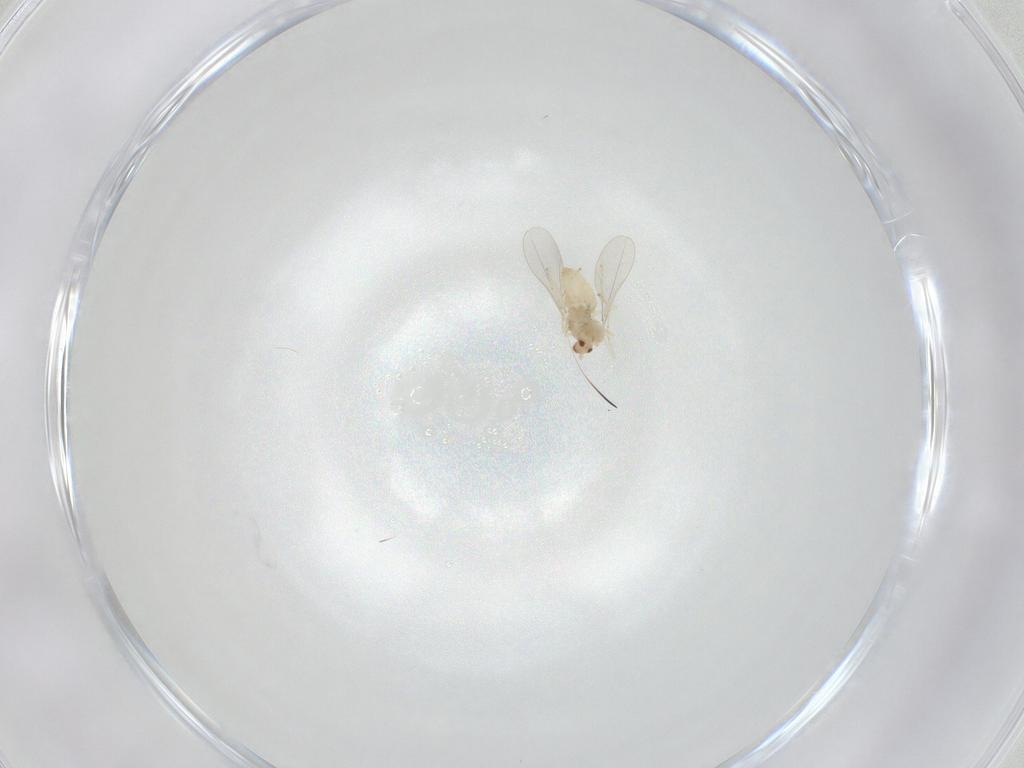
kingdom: Animalia
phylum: Arthropoda
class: Insecta
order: Diptera
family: Cecidomyiidae
